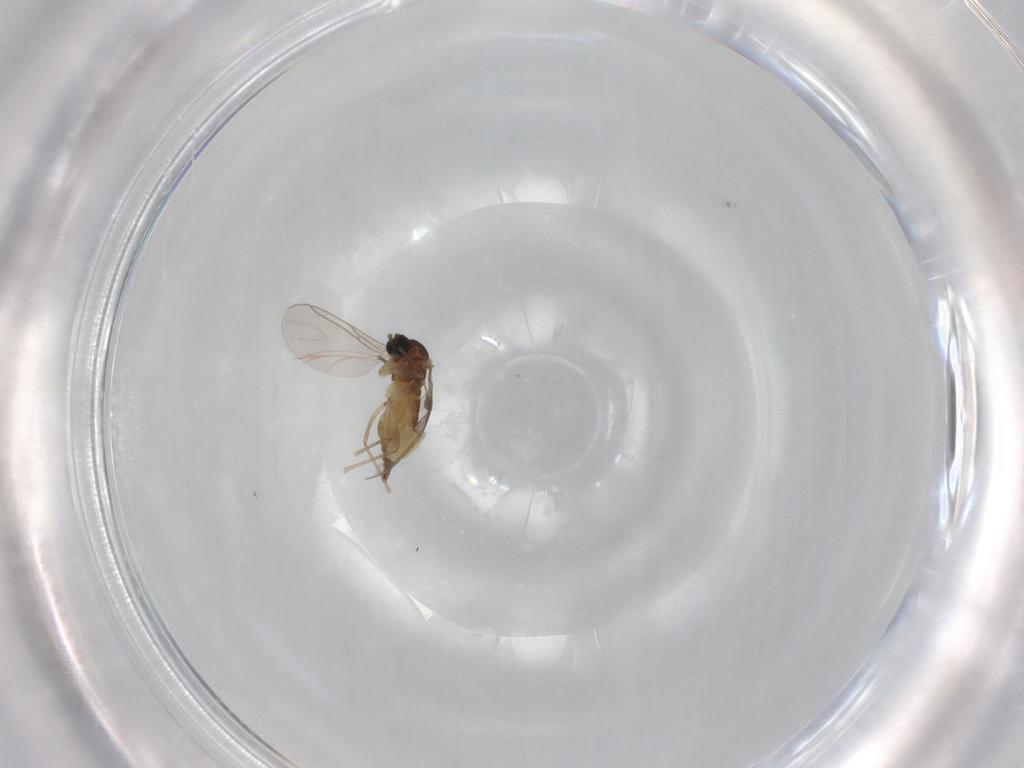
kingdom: Animalia
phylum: Arthropoda
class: Insecta
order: Diptera
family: Sciaridae
